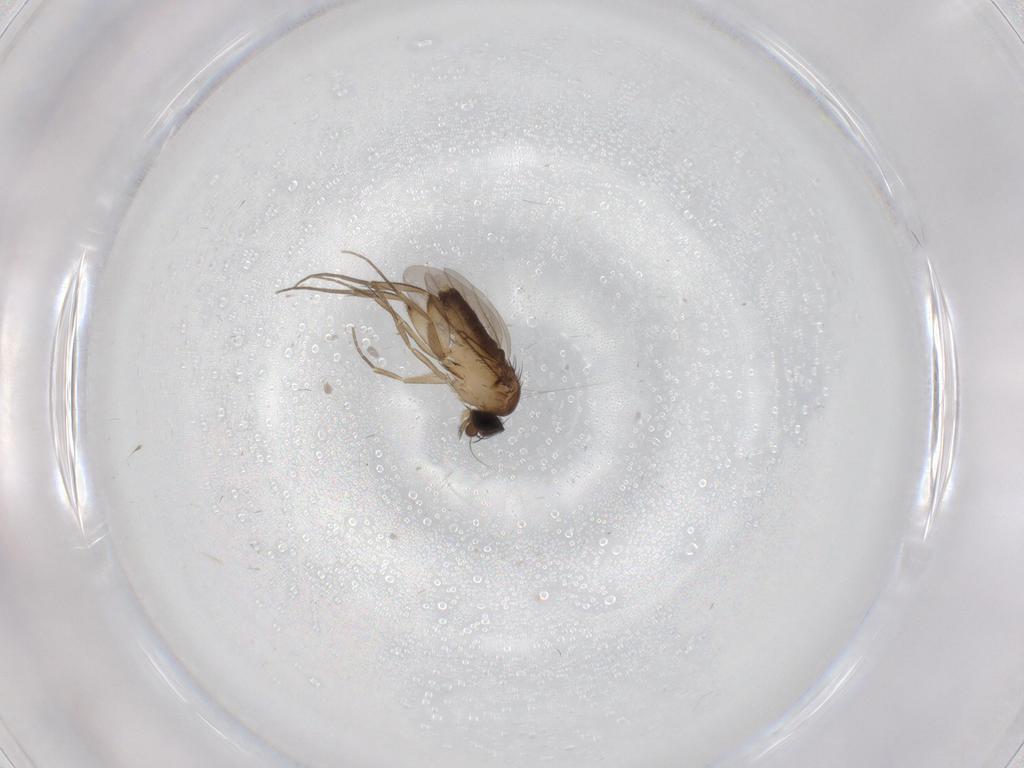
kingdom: Animalia
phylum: Arthropoda
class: Insecta
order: Diptera
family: Phoridae
